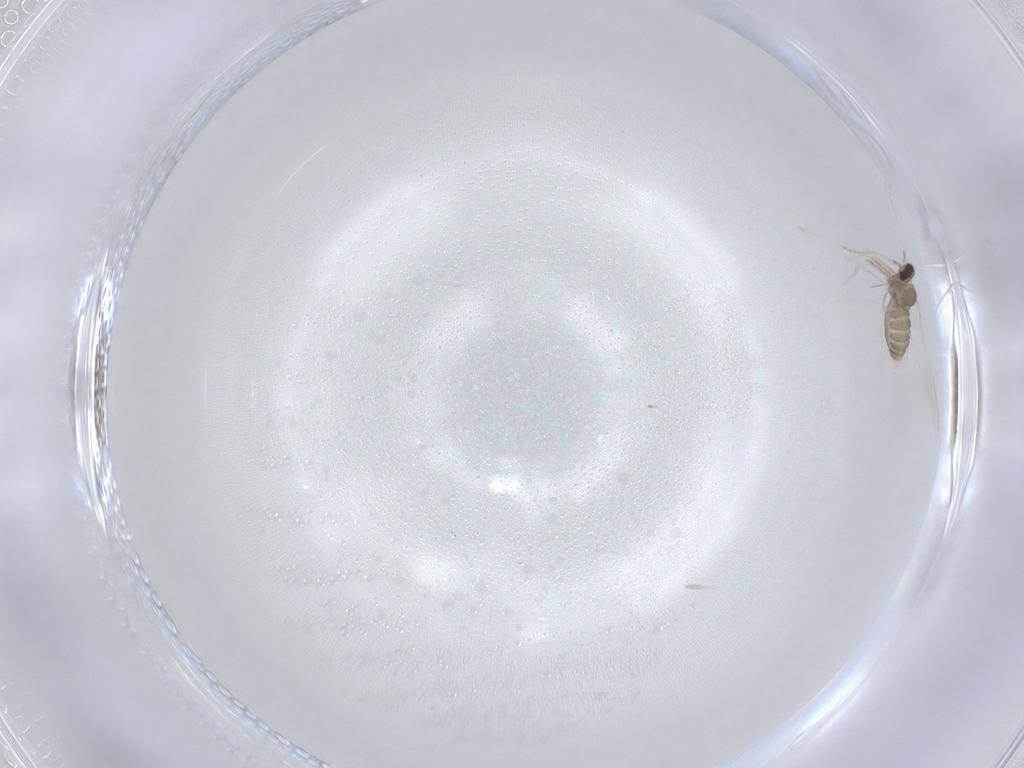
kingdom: Animalia
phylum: Arthropoda
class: Insecta
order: Diptera
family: Cecidomyiidae
